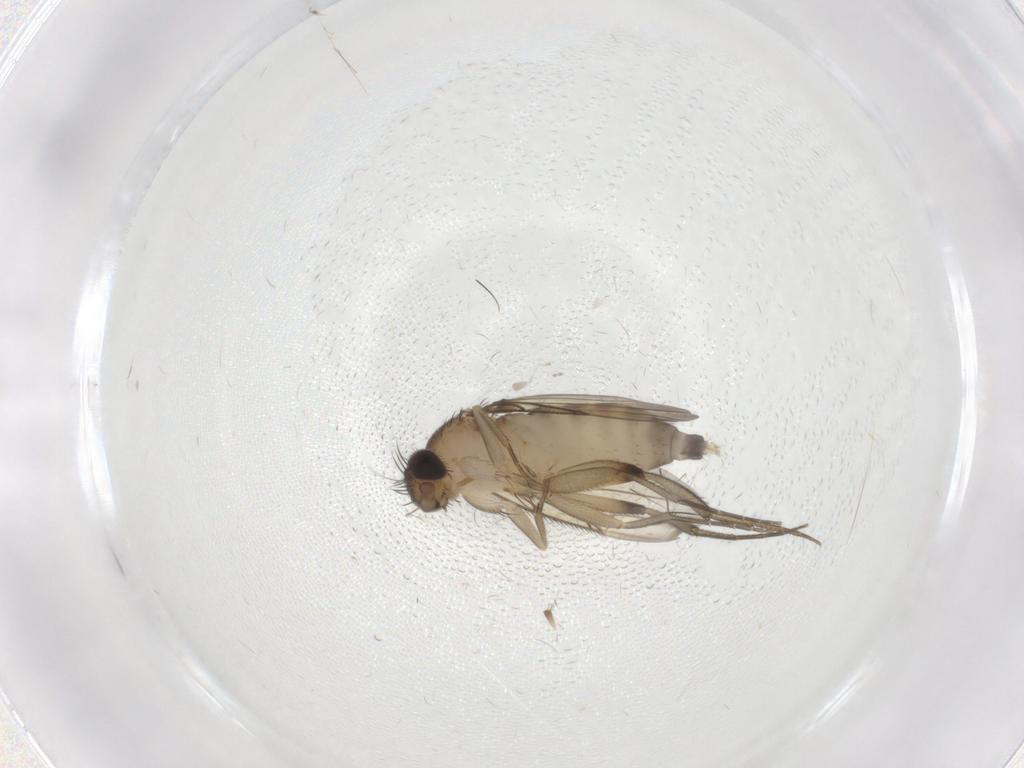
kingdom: Animalia
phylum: Arthropoda
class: Insecta
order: Diptera
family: Phoridae
